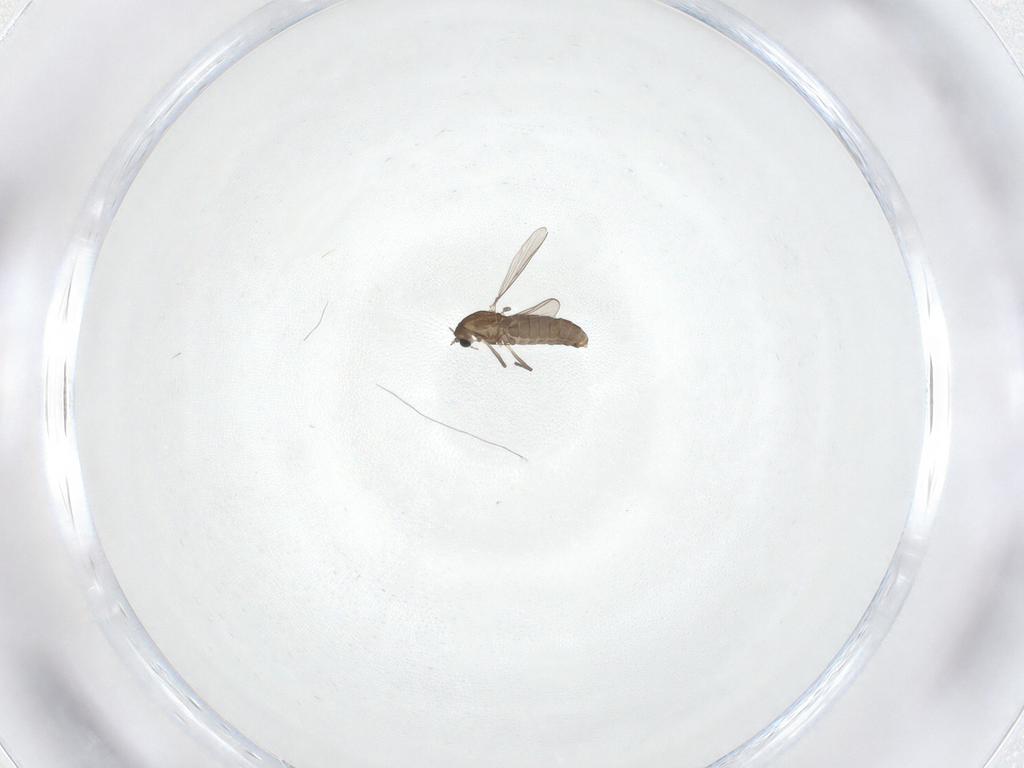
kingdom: Animalia
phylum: Arthropoda
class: Insecta
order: Diptera
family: Chironomidae
